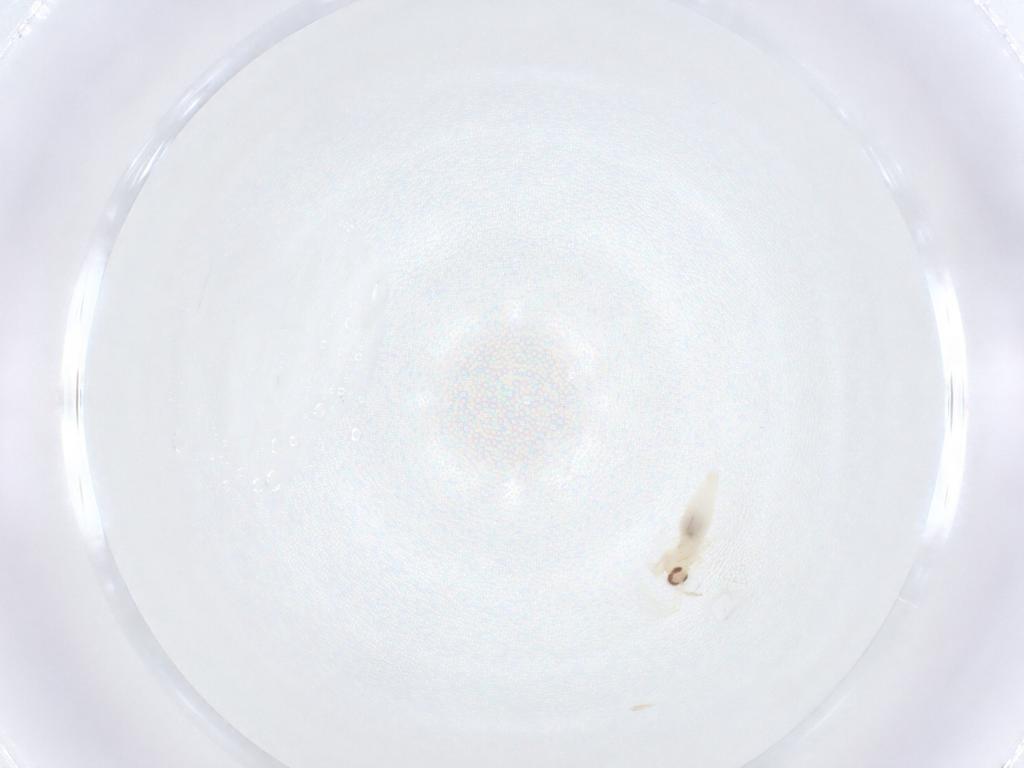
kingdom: Animalia
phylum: Arthropoda
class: Insecta
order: Diptera
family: Cecidomyiidae
